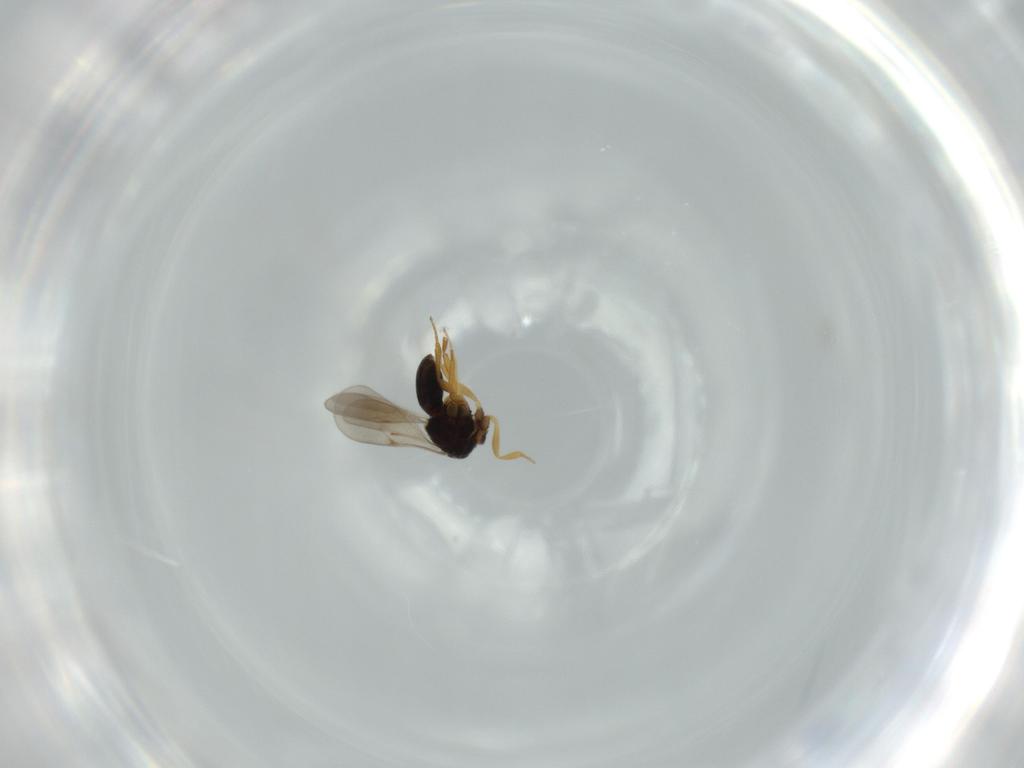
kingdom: Animalia
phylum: Arthropoda
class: Insecta
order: Hymenoptera
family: Scelionidae
